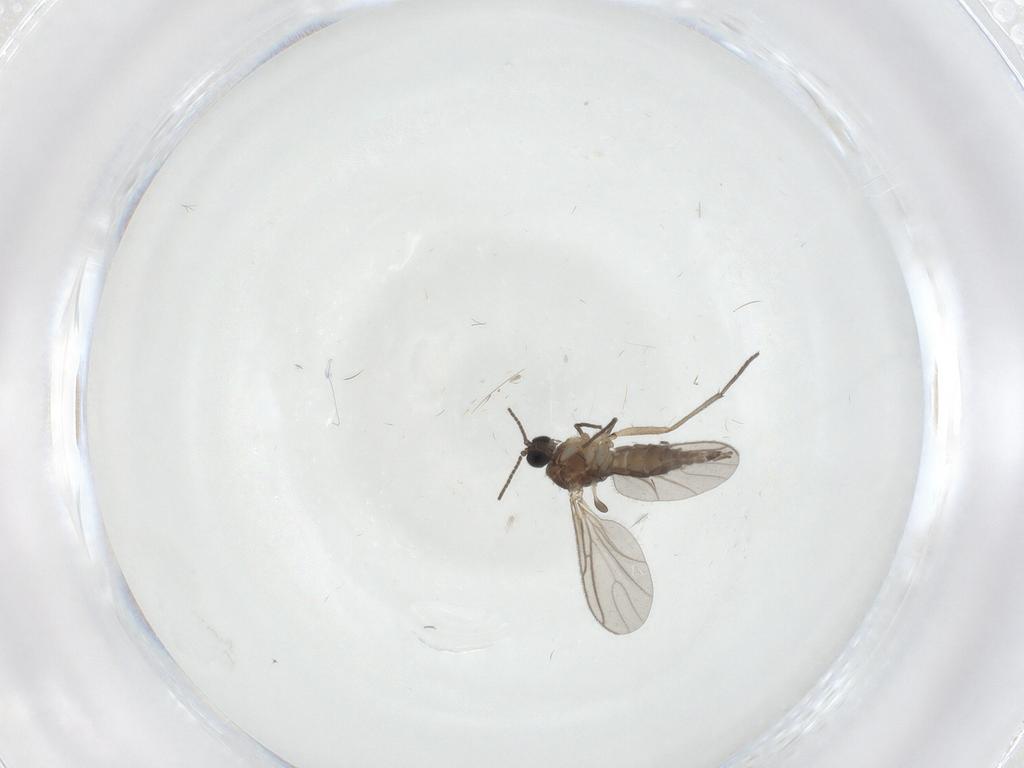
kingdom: Animalia
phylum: Arthropoda
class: Insecta
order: Diptera
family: Sciaridae
